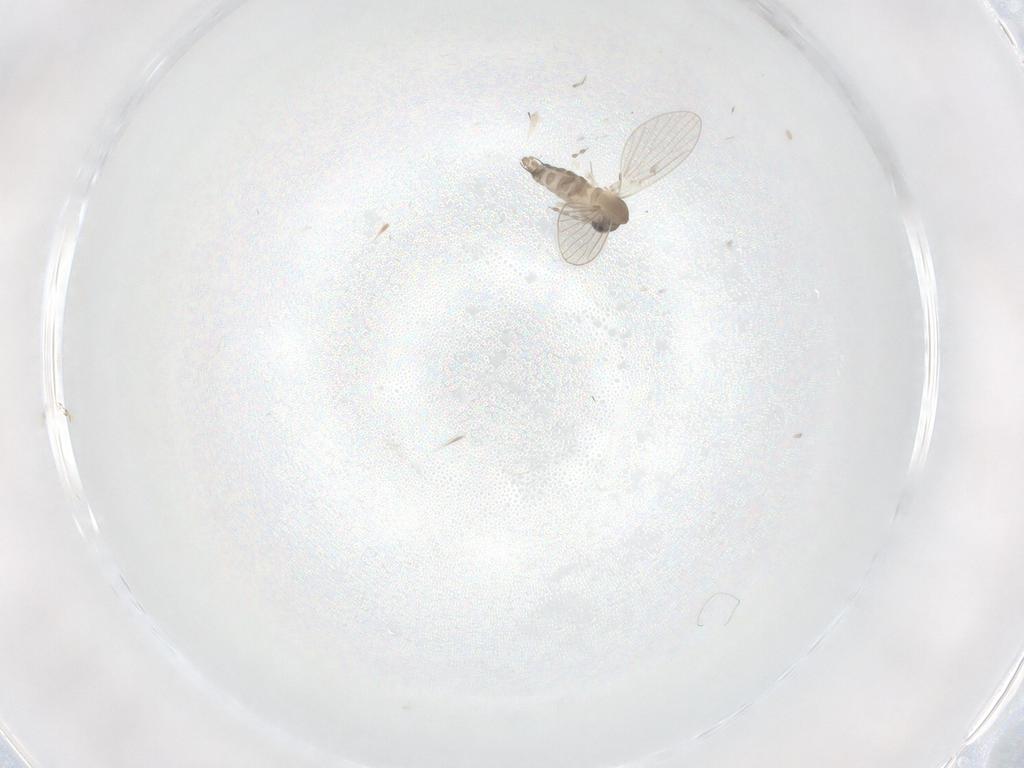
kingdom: Animalia
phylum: Arthropoda
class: Insecta
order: Diptera
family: Psychodidae
